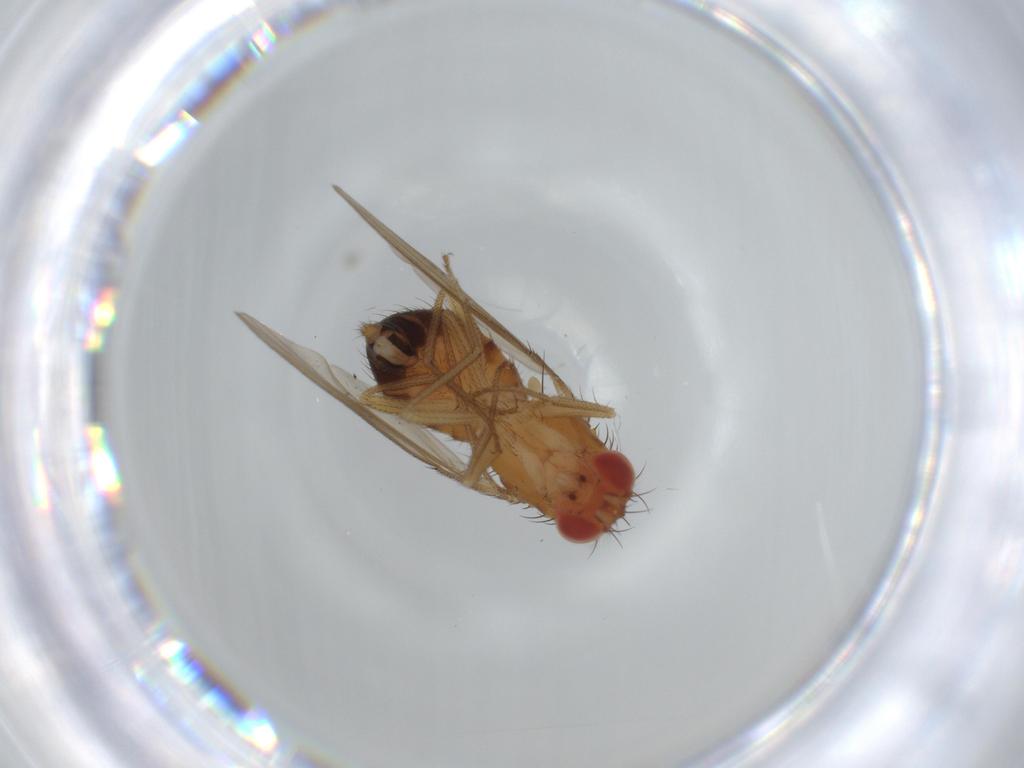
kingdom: Animalia
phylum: Arthropoda
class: Insecta
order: Diptera
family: Drosophilidae
